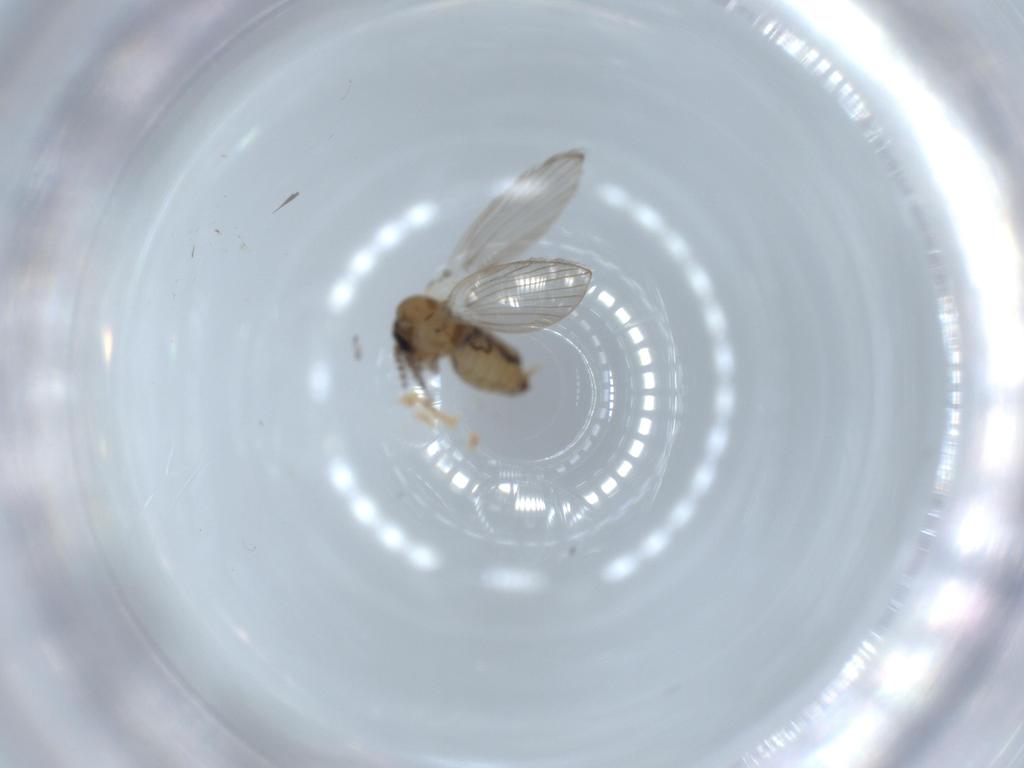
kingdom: Animalia
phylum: Arthropoda
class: Insecta
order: Diptera
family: Psychodidae
